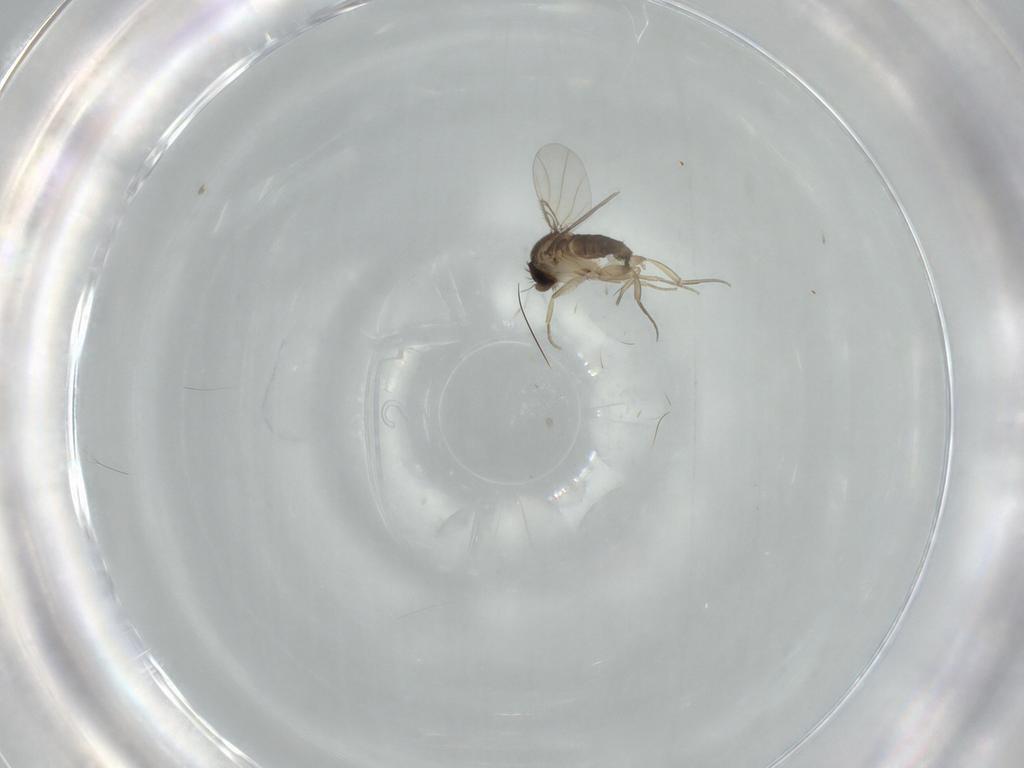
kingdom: Animalia
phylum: Arthropoda
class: Insecta
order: Diptera
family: Phoridae
